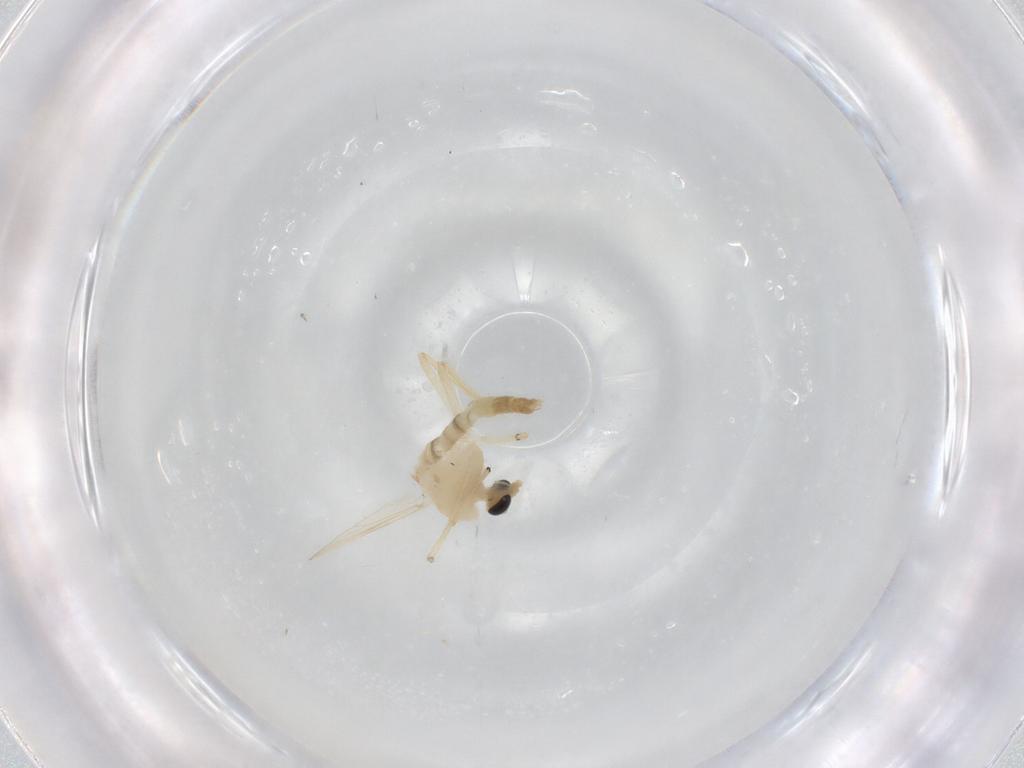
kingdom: Animalia
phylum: Arthropoda
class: Insecta
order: Diptera
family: Chironomidae
